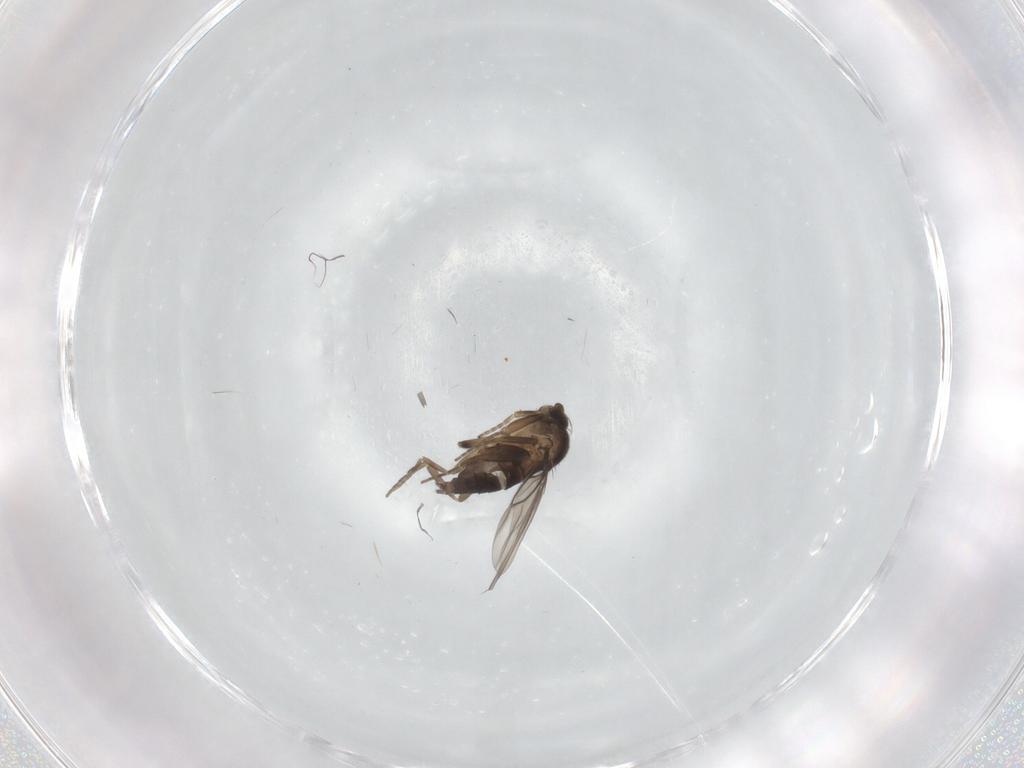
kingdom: Animalia
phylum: Arthropoda
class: Insecta
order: Diptera
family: Phoridae
